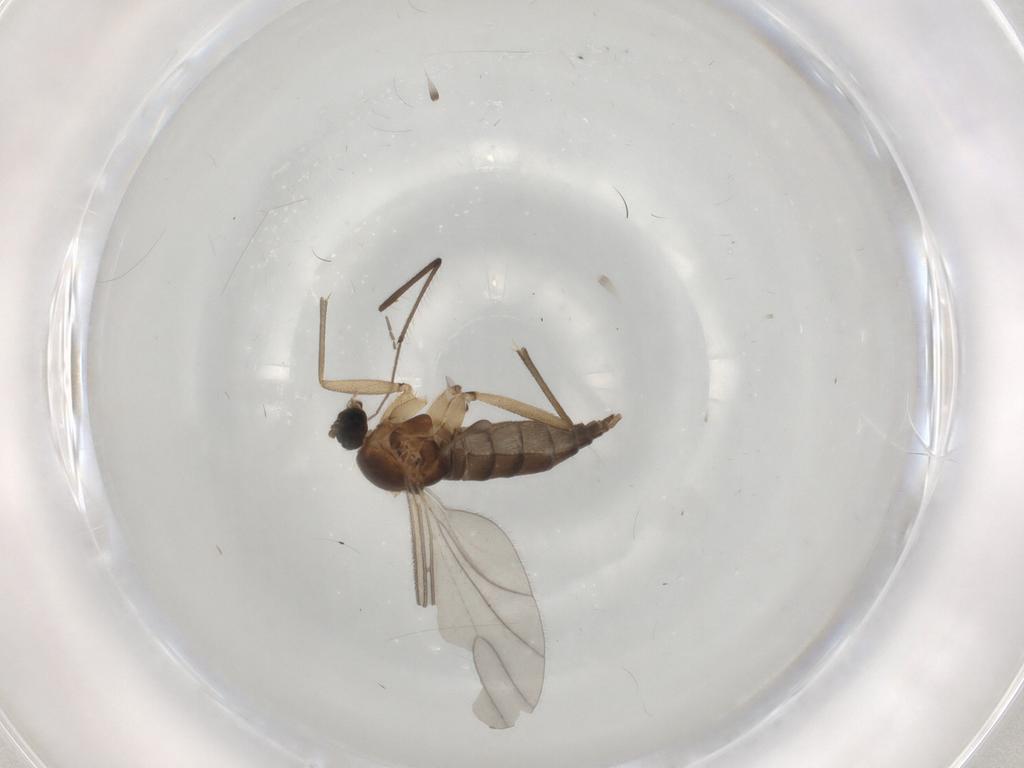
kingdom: Animalia
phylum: Arthropoda
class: Insecta
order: Diptera
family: Sciaridae
